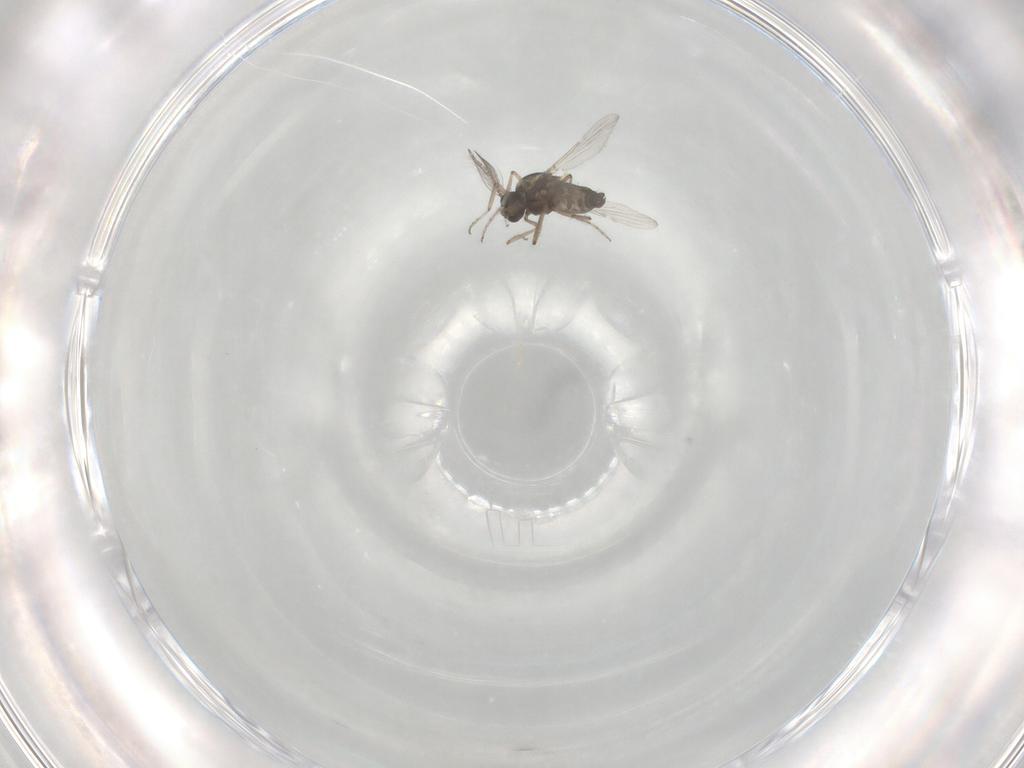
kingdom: Animalia
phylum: Arthropoda
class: Insecta
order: Diptera
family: Ceratopogonidae
